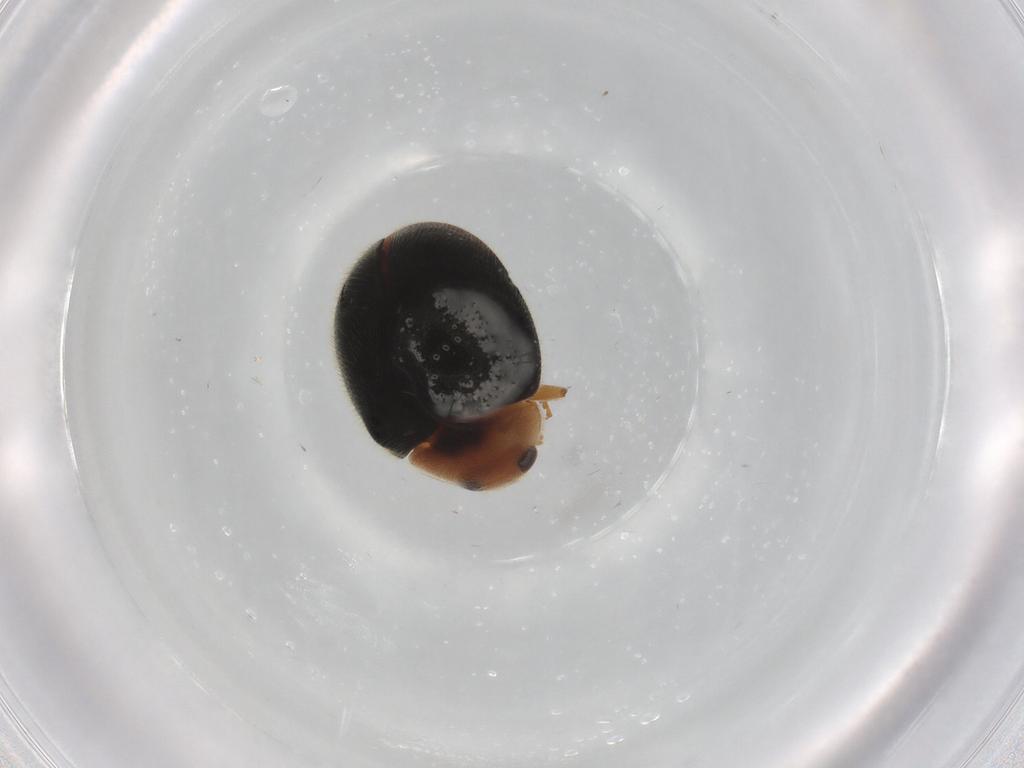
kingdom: Animalia
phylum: Arthropoda
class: Insecta
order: Coleoptera
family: Coccinellidae
